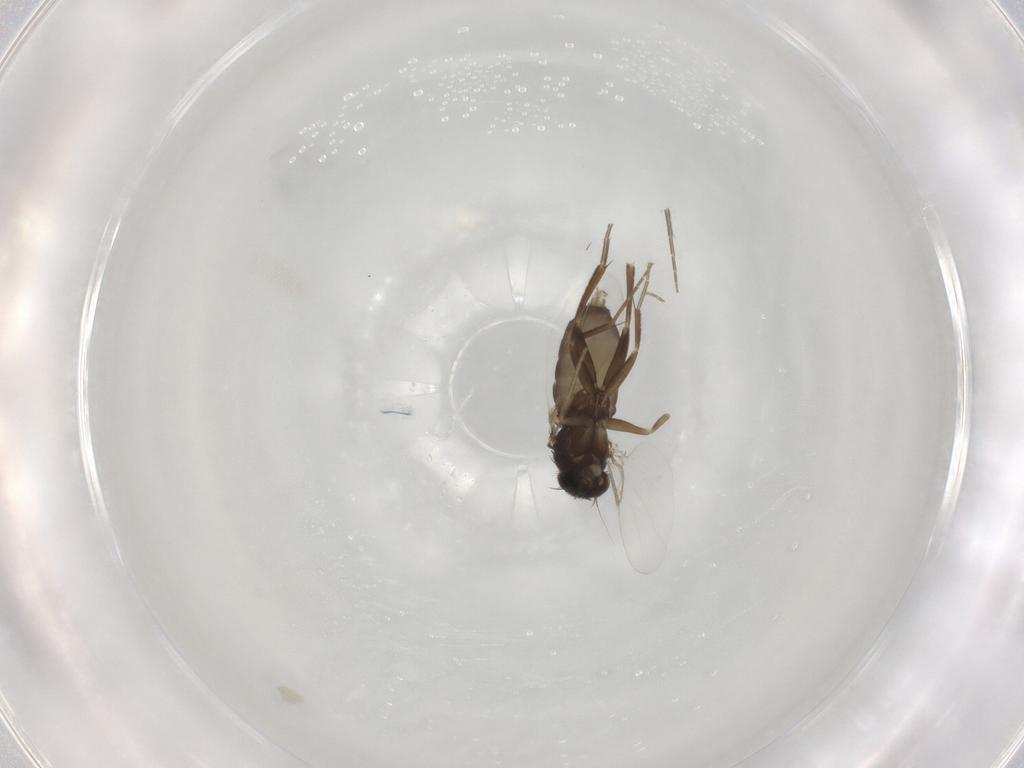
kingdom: Animalia
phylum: Arthropoda
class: Insecta
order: Diptera
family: Phoridae
